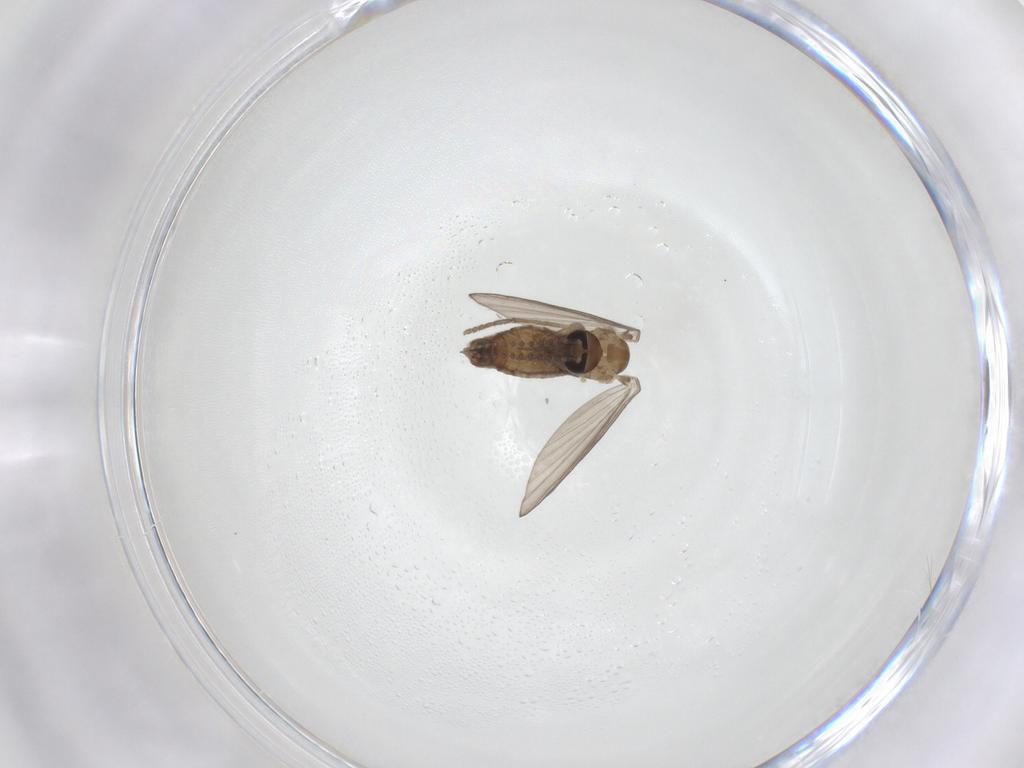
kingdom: Animalia
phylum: Arthropoda
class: Insecta
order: Diptera
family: Psychodidae
